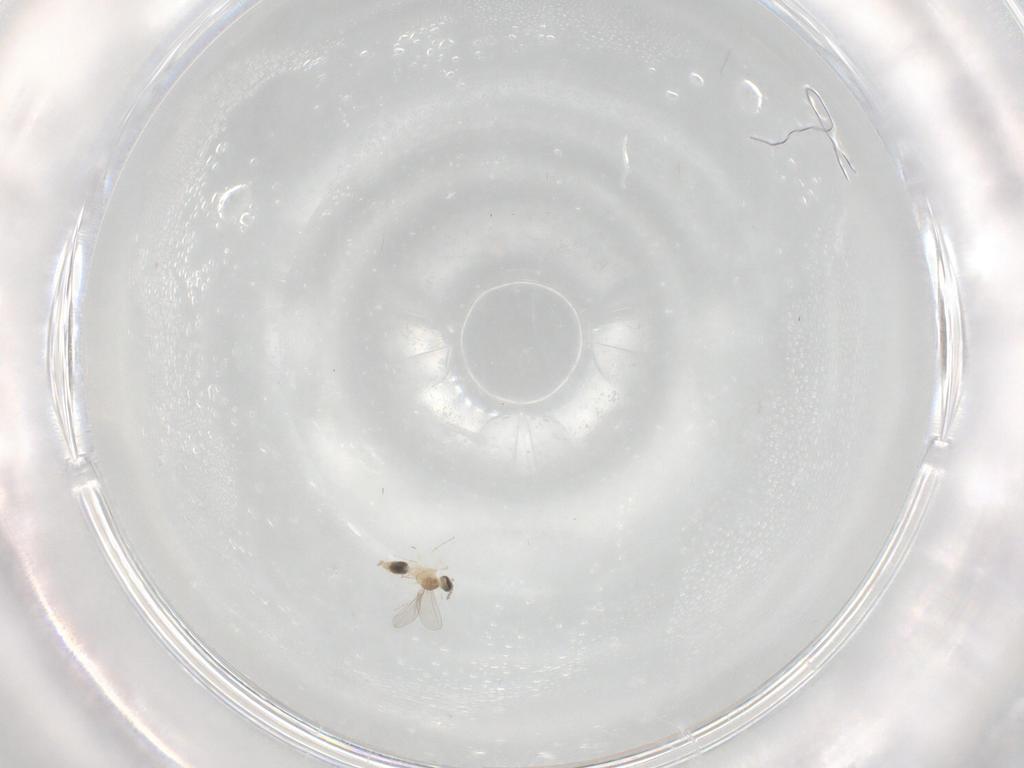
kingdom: Animalia
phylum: Arthropoda
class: Insecta
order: Diptera
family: Cecidomyiidae
